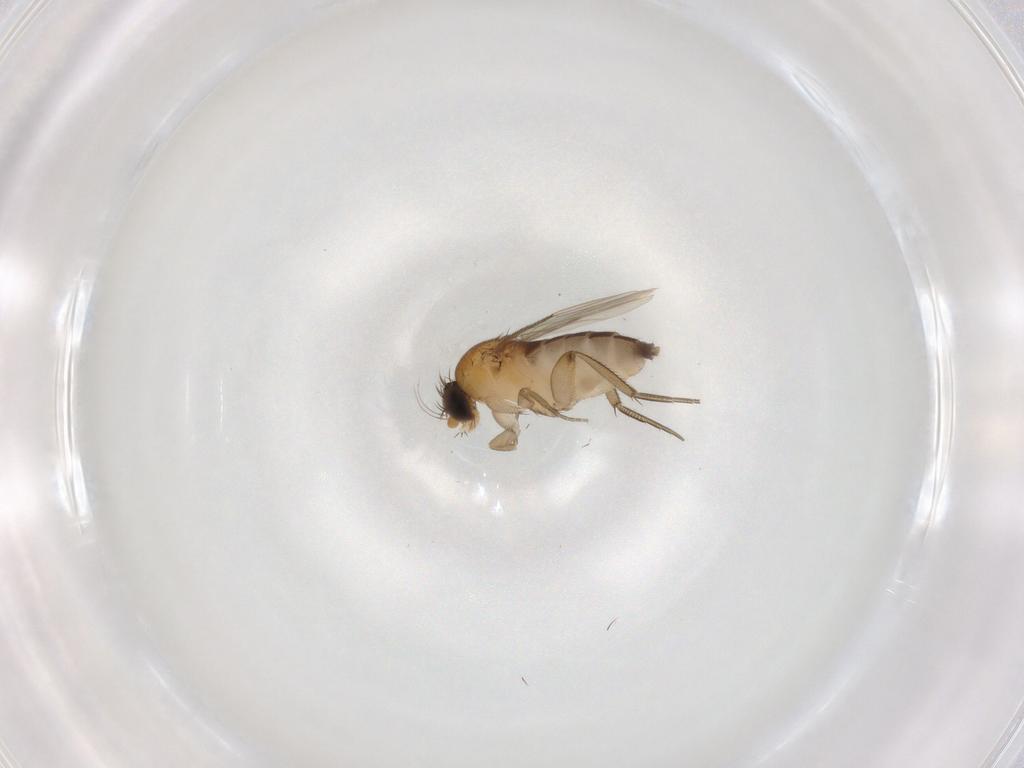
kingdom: Animalia
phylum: Arthropoda
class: Insecta
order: Diptera
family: Phoridae
